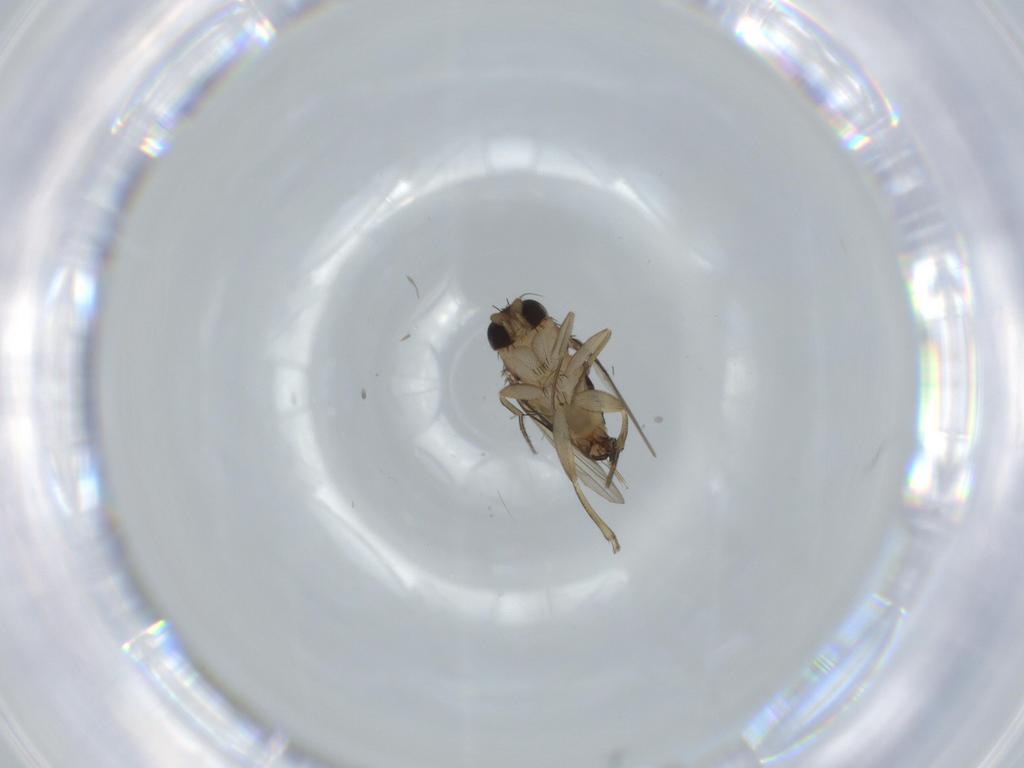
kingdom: Animalia
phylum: Arthropoda
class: Insecta
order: Diptera
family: Phoridae
